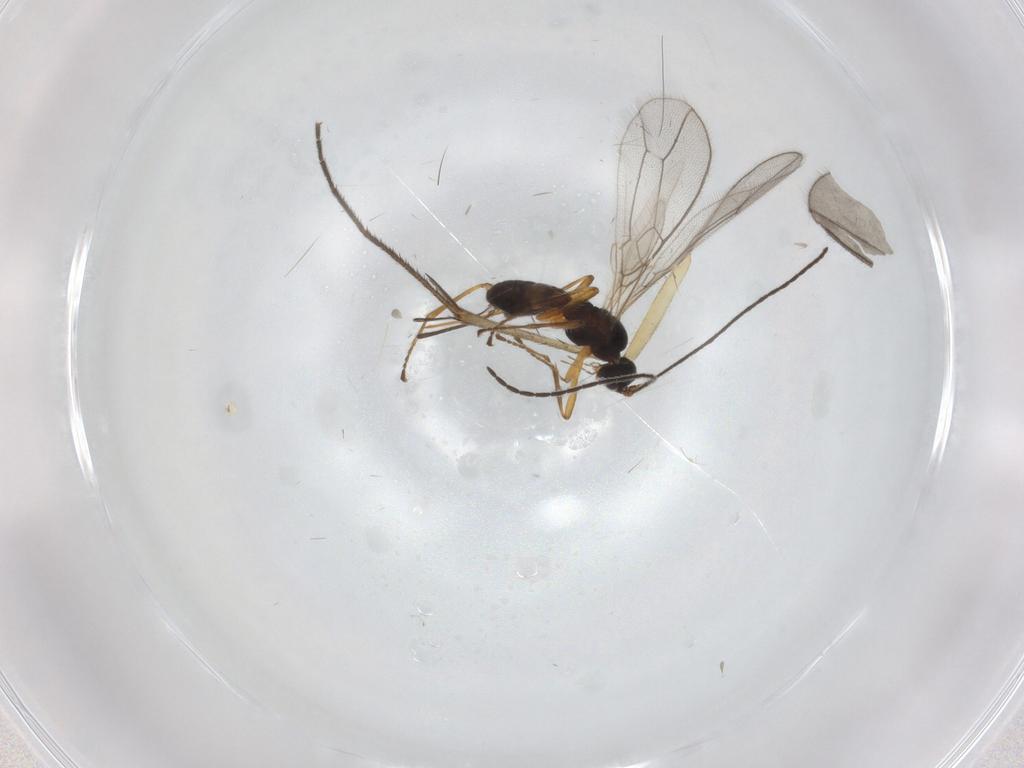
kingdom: Animalia
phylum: Arthropoda
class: Insecta
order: Hymenoptera
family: Braconidae
